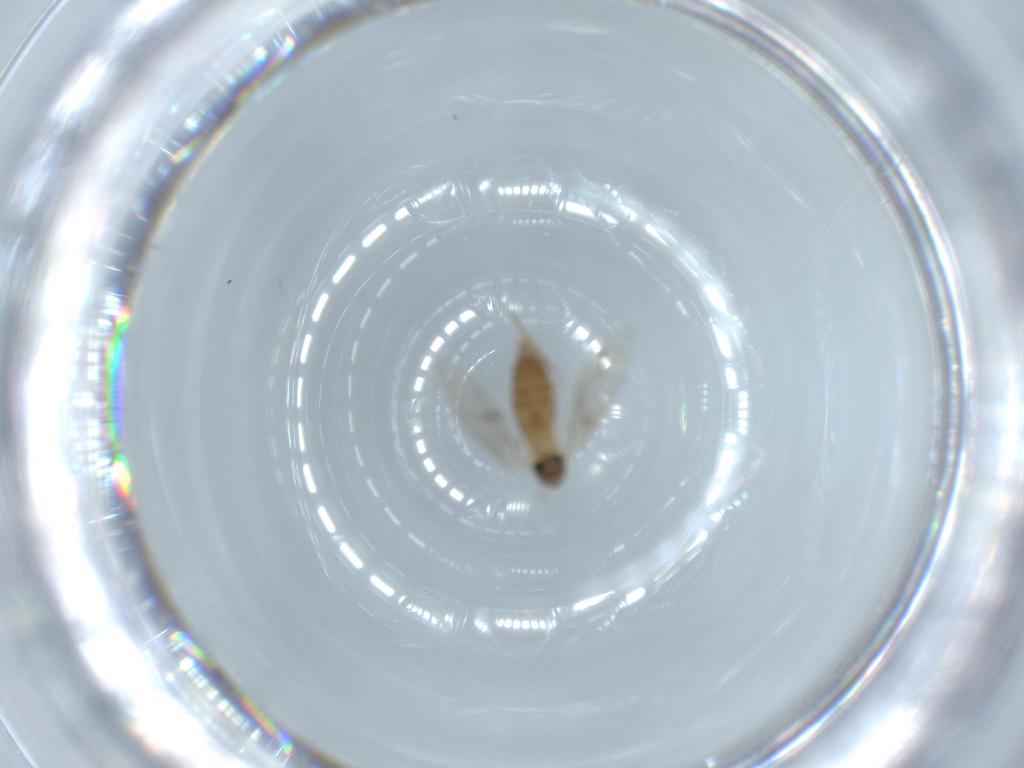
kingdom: Animalia
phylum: Arthropoda
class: Insecta
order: Diptera
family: Psychodidae
